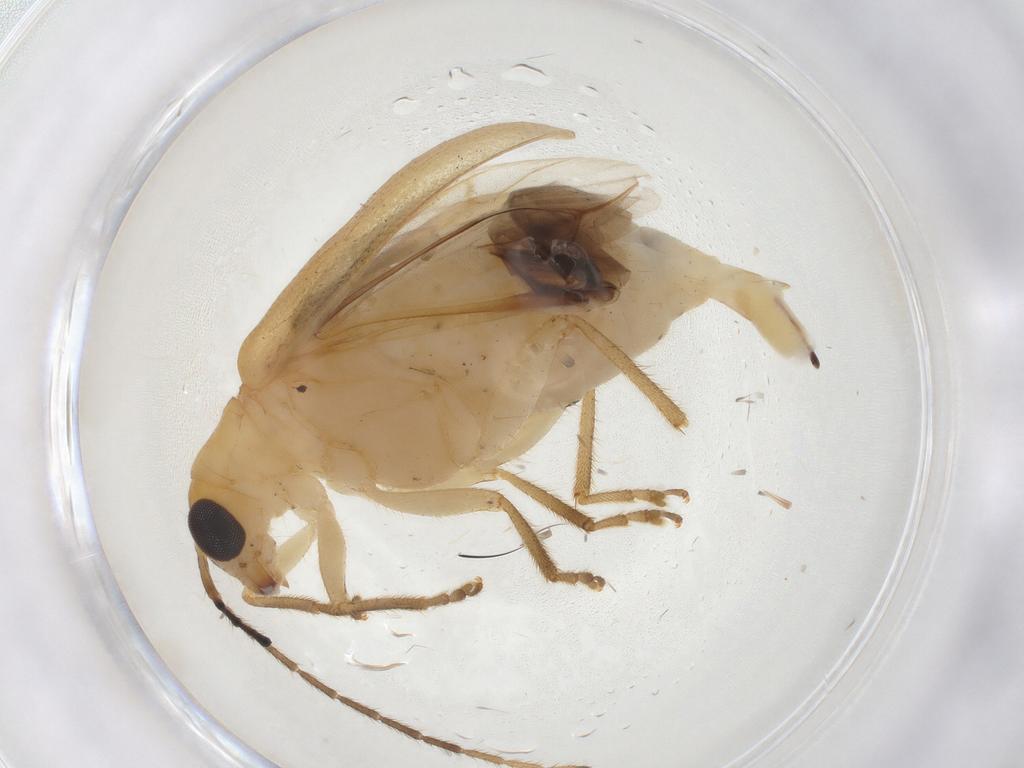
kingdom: Animalia
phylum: Arthropoda
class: Insecta
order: Coleoptera
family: Chrysomelidae
